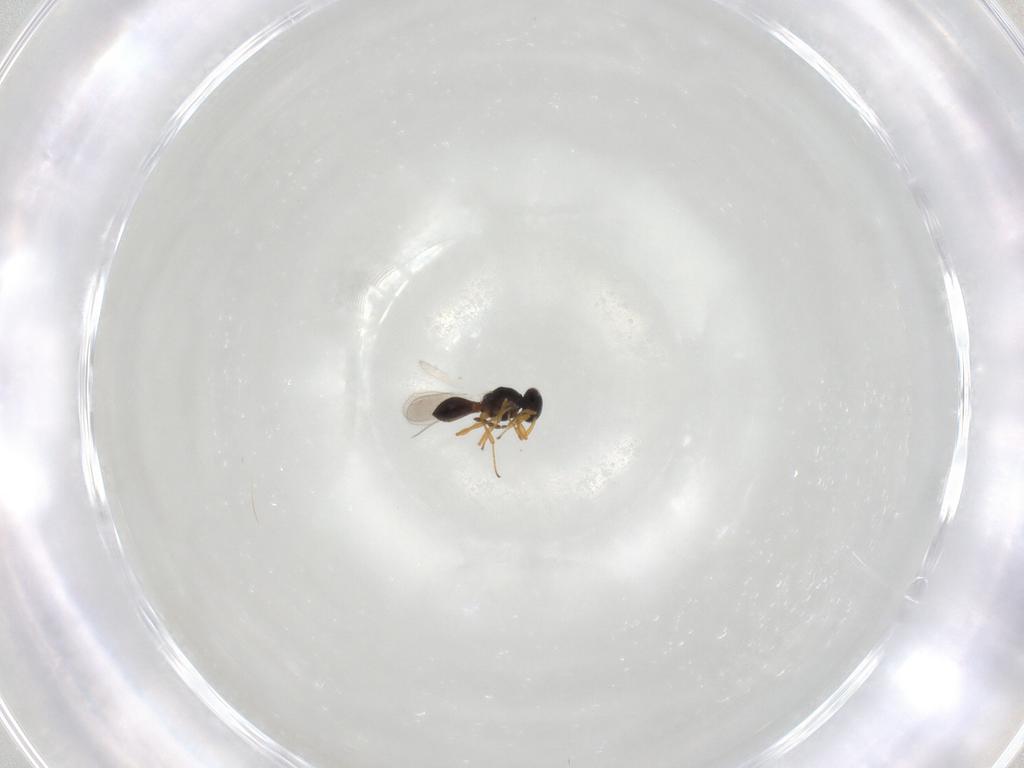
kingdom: Animalia
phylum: Arthropoda
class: Insecta
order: Hymenoptera
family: Platygastridae
